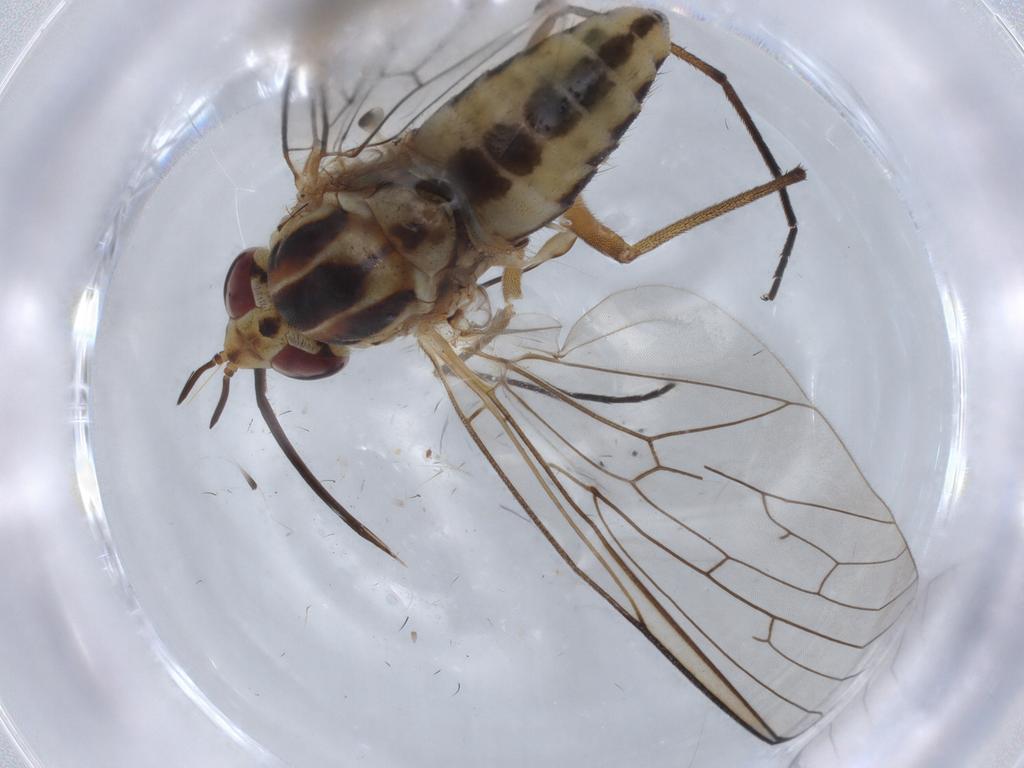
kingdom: Animalia
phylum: Arthropoda
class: Insecta
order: Diptera
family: Bombyliidae
